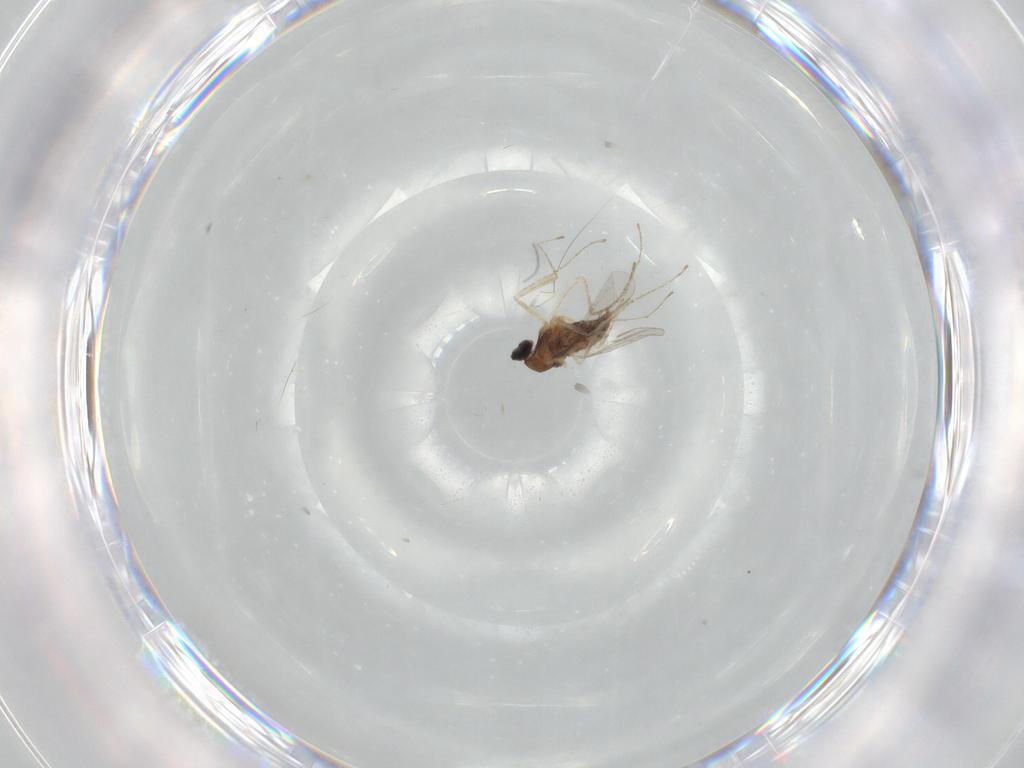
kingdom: Animalia
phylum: Arthropoda
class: Insecta
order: Diptera
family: Cecidomyiidae
